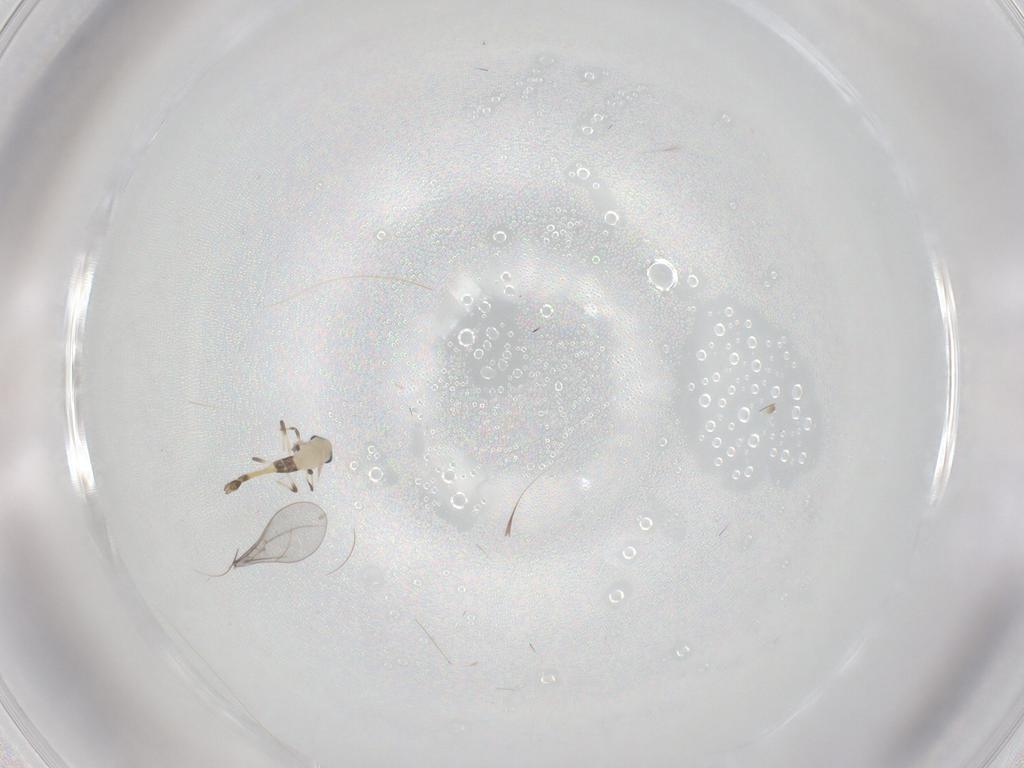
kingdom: Animalia
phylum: Arthropoda
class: Insecta
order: Diptera
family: Cecidomyiidae
